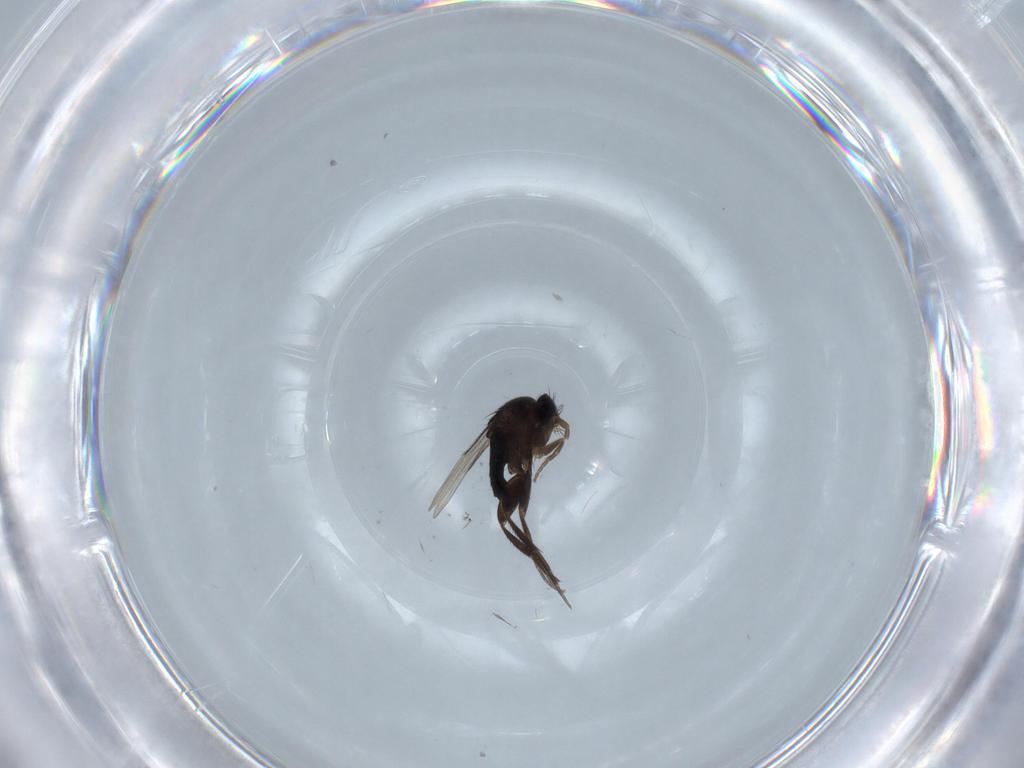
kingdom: Animalia
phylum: Arthropoda
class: Insecta
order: Diptera
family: Phoridae
